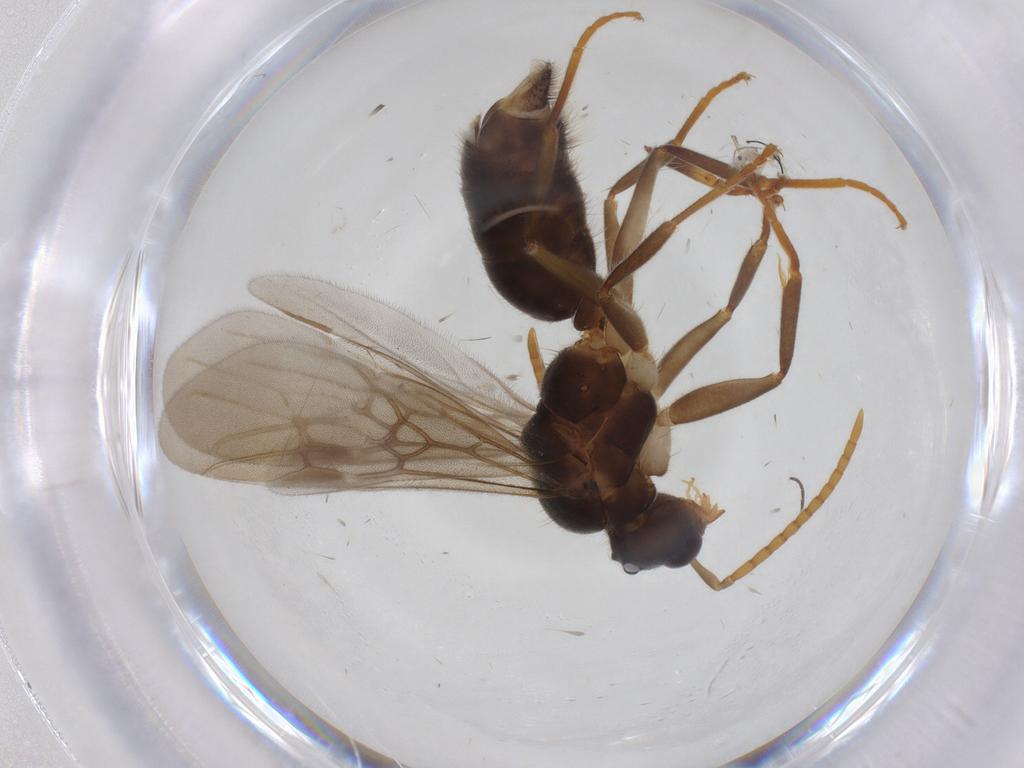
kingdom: Animalia
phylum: Arthropoda
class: Insecta
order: Hymenoptera
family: Formicidae
